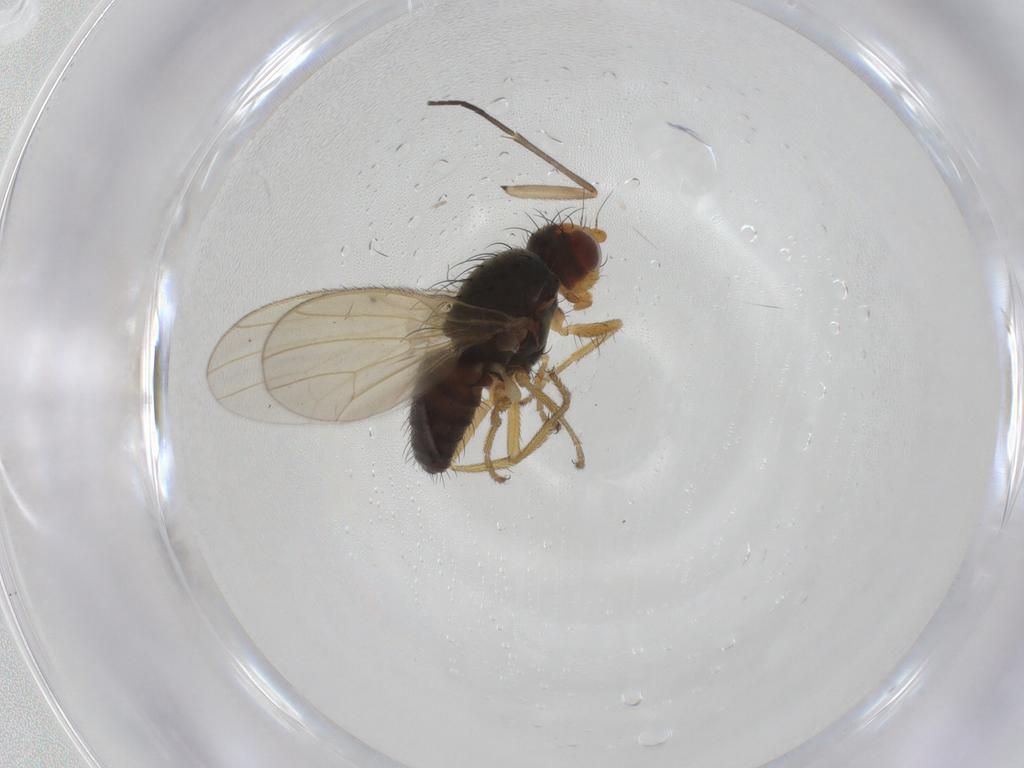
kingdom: Animalia
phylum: Arthropoda
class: Insecta
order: Diptera
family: Heleomyzidae
